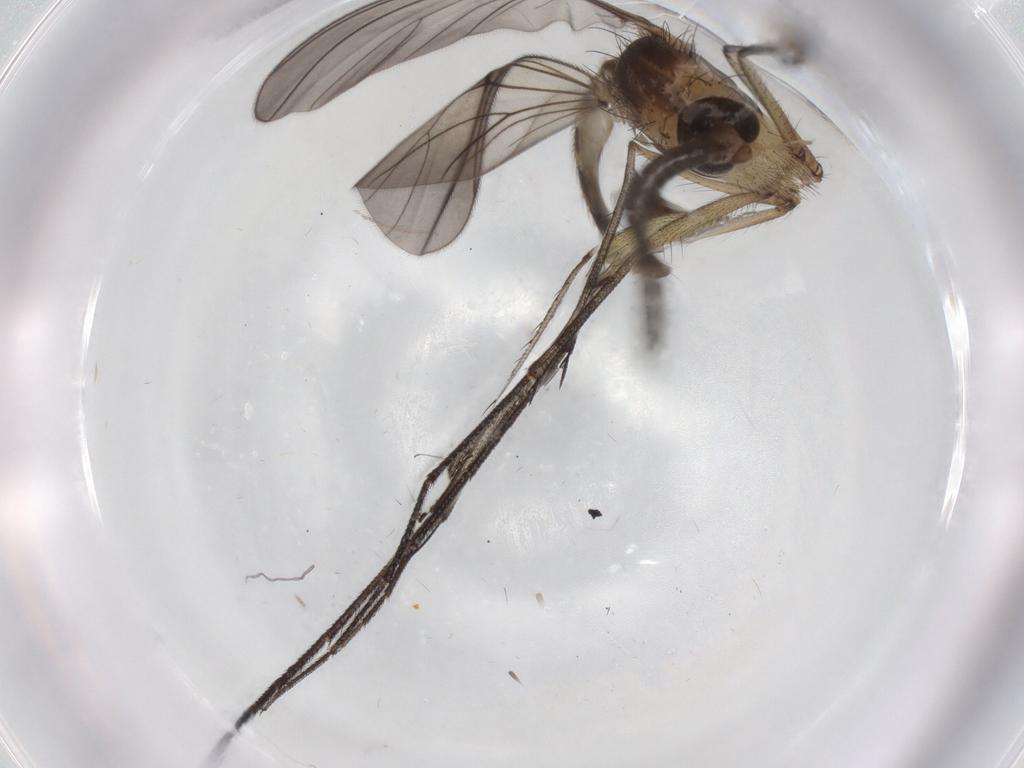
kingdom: Animalia
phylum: Arthropoda
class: Insecta
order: Diptera
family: Mycetophilidae
